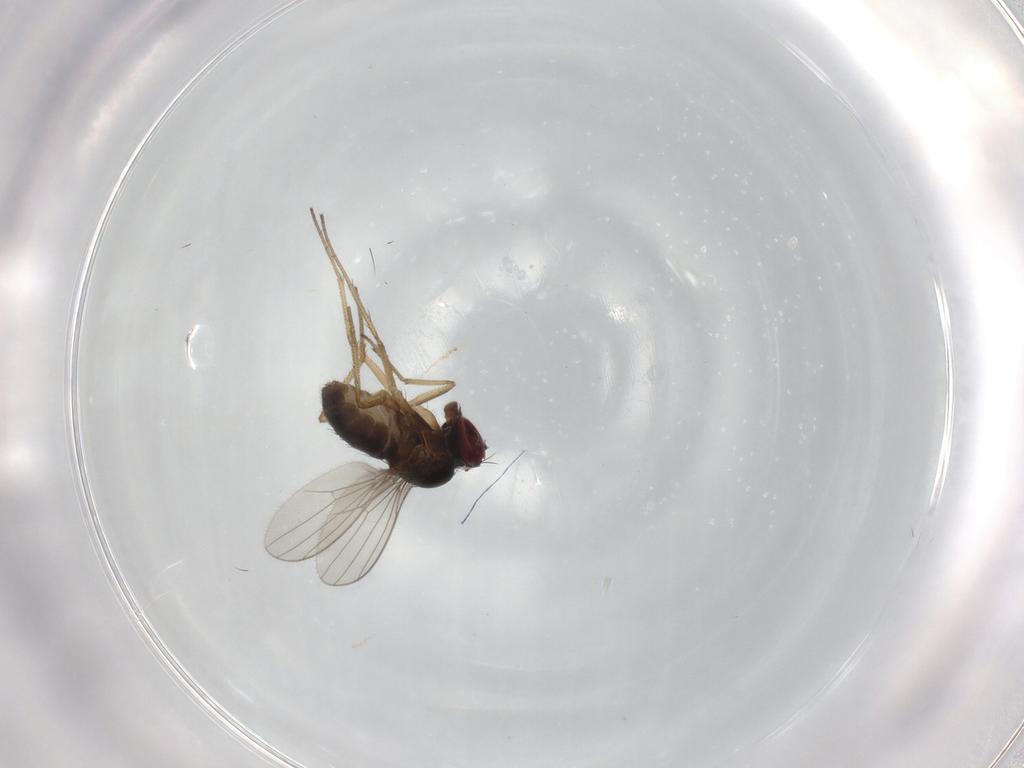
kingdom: Animalia
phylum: Arthropoda
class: Insecta
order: Diptera
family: Dolichopodidae
